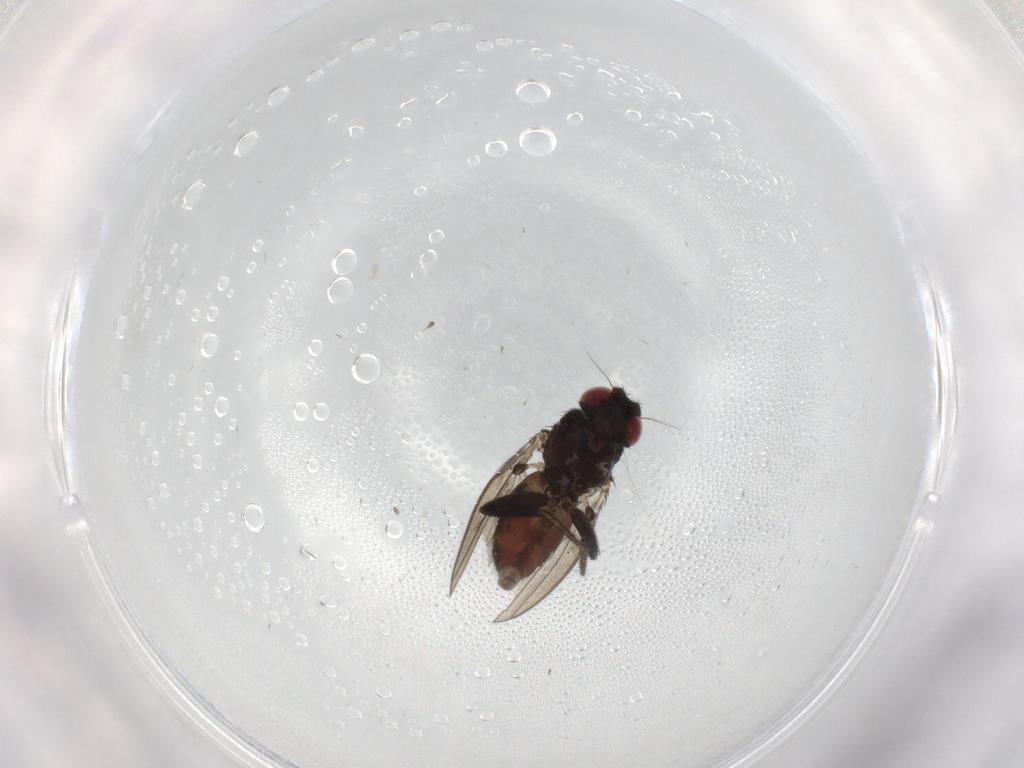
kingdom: Animalia
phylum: Arthropoda
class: Insecta
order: Diptera
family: Milichiidae
